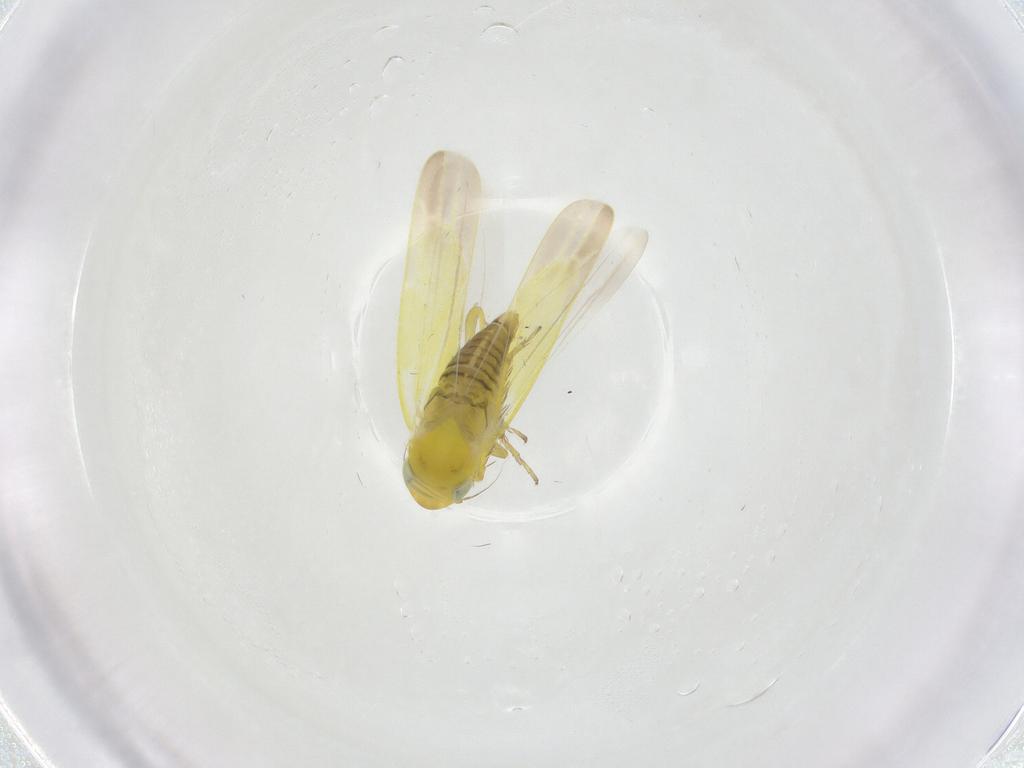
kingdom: Animalia
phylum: Arthropoda
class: Insecta
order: Hemiptera
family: Cicadellidae
